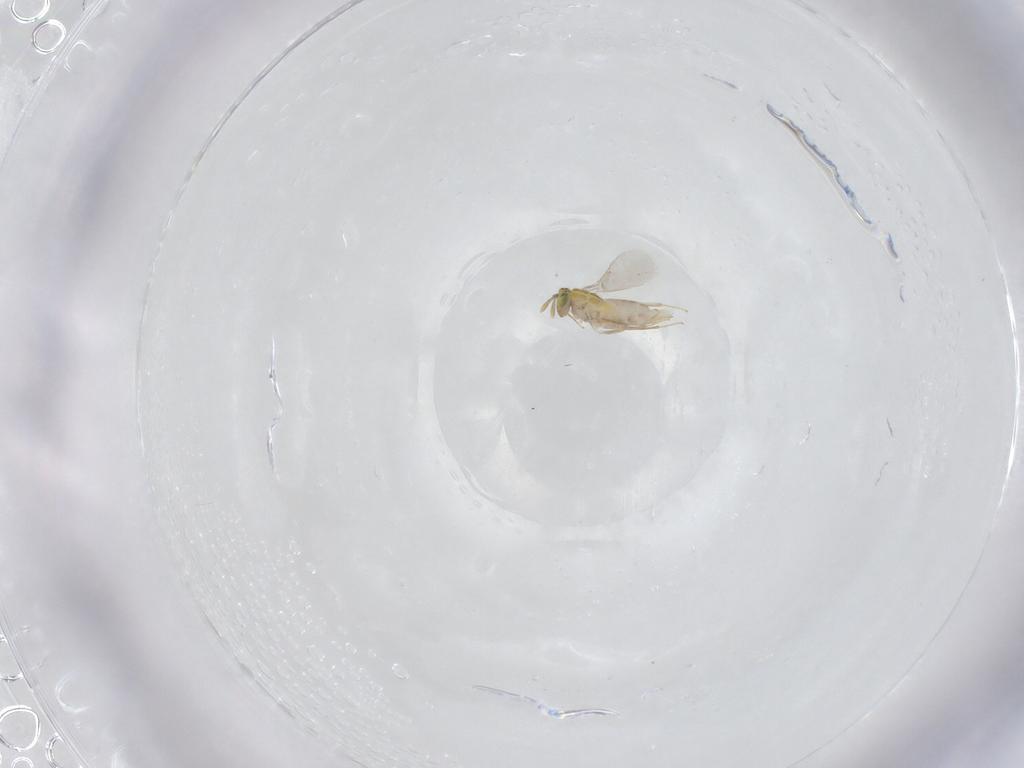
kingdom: Animalia
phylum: Arthropoda
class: Insecta
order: Hymenoptera
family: Aphelinidae
